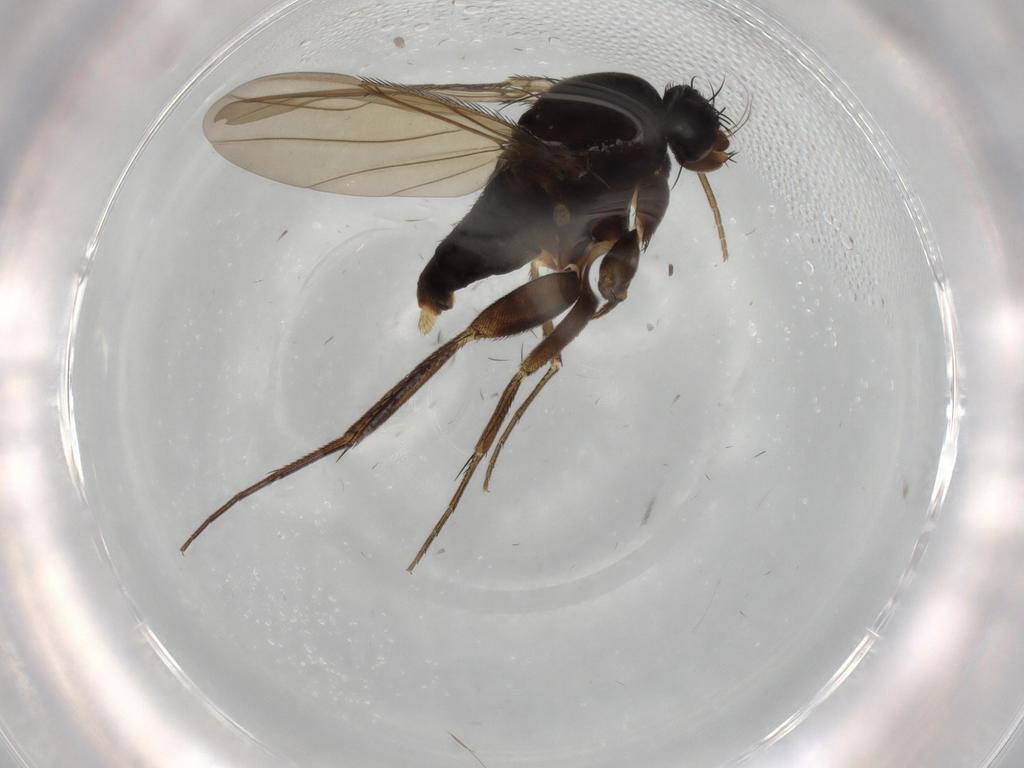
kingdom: Animalia
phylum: Arthropoda
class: Insecta
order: Diptera
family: Phoridae
